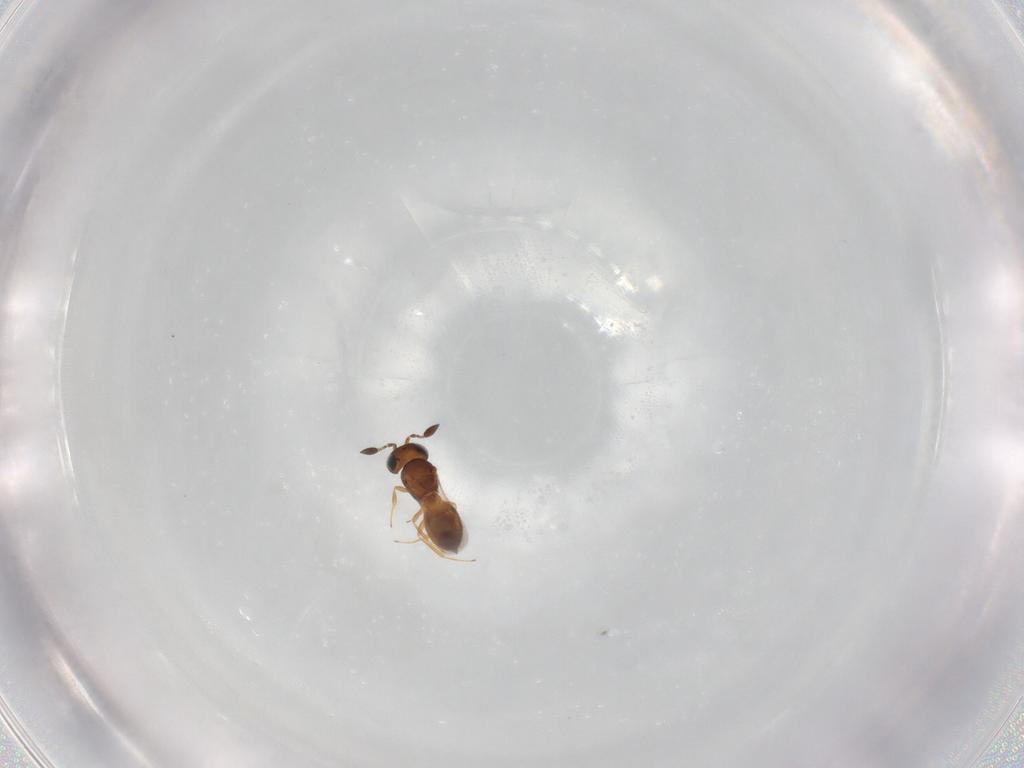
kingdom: Animalia
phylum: Arthropoda
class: Insecta
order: Hymenoptera
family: Scelionidae
